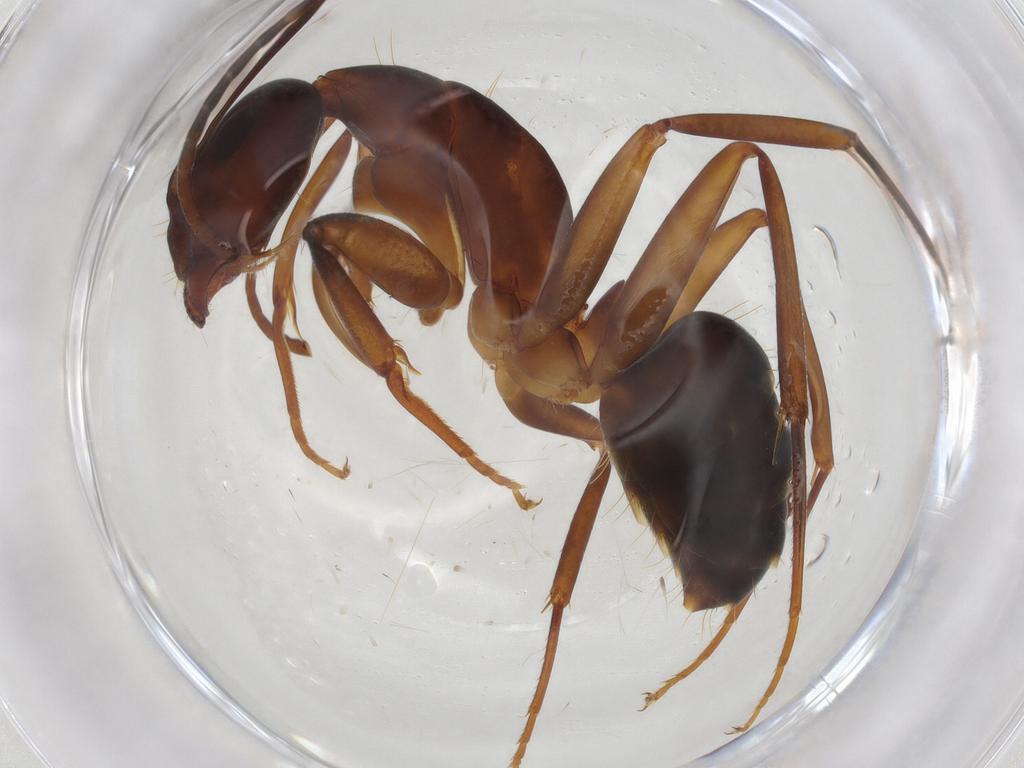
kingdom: Animalia
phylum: Arthropoda
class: Insecta
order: Hymenoptera
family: Formicidae
